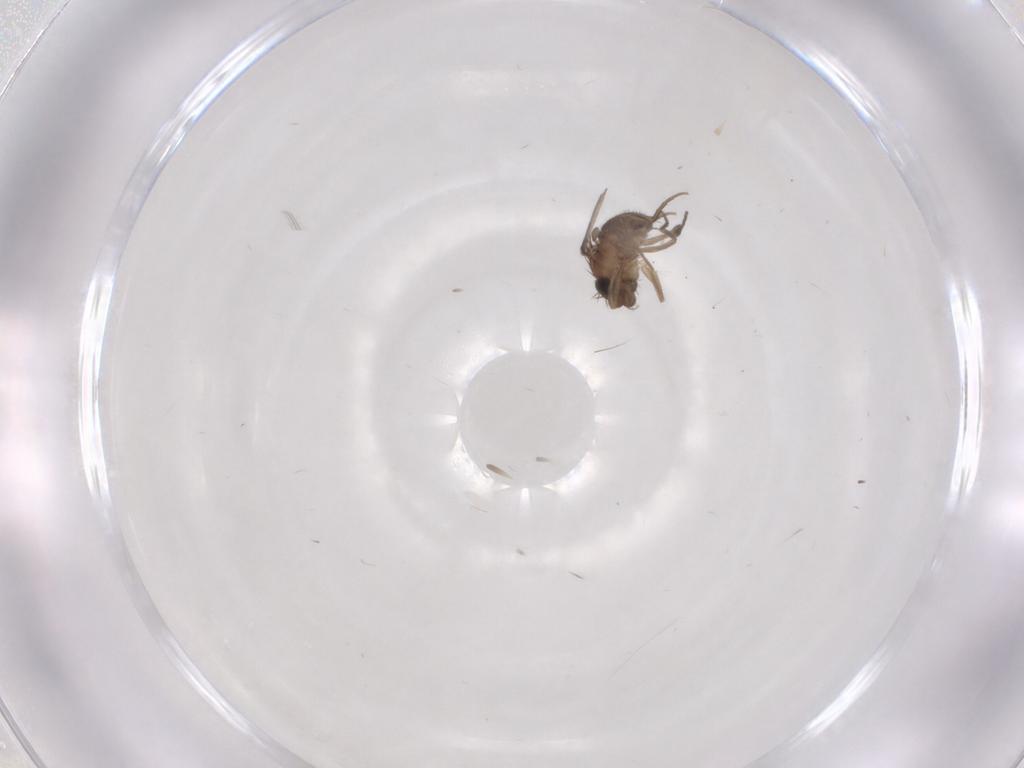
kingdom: Animalia
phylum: Arthropoda
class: Insecta
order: Diptera
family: Phoridae
